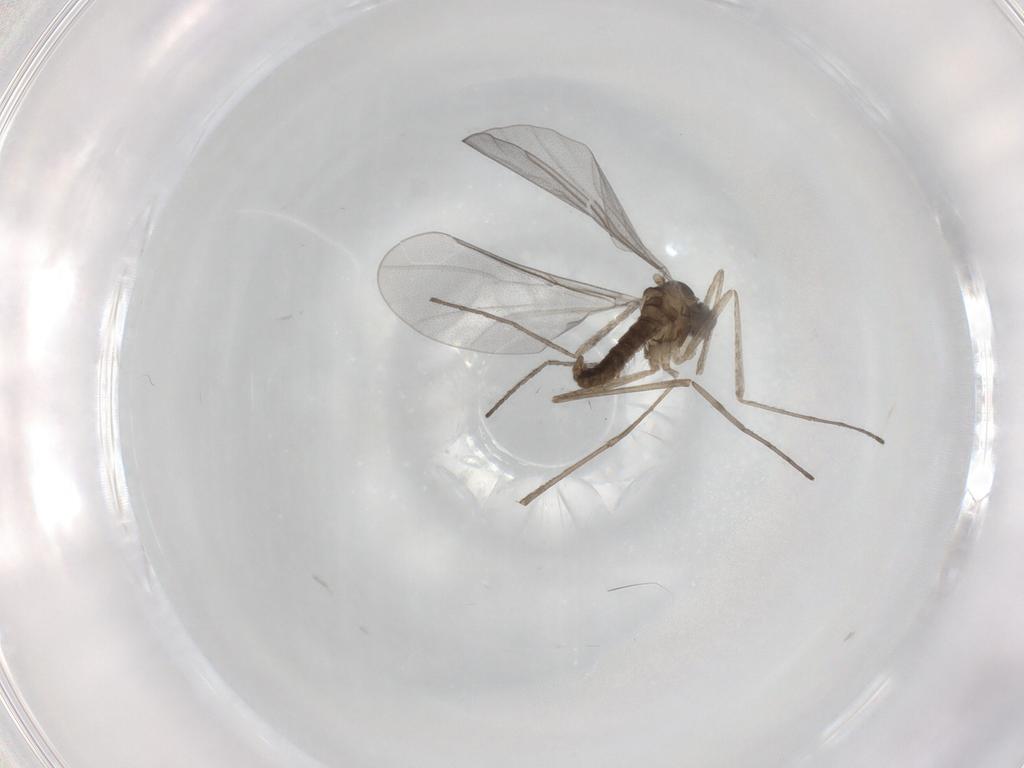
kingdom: Animalia
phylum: Arthropoda
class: Insecta
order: Diptera
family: Cecidomyiidae
